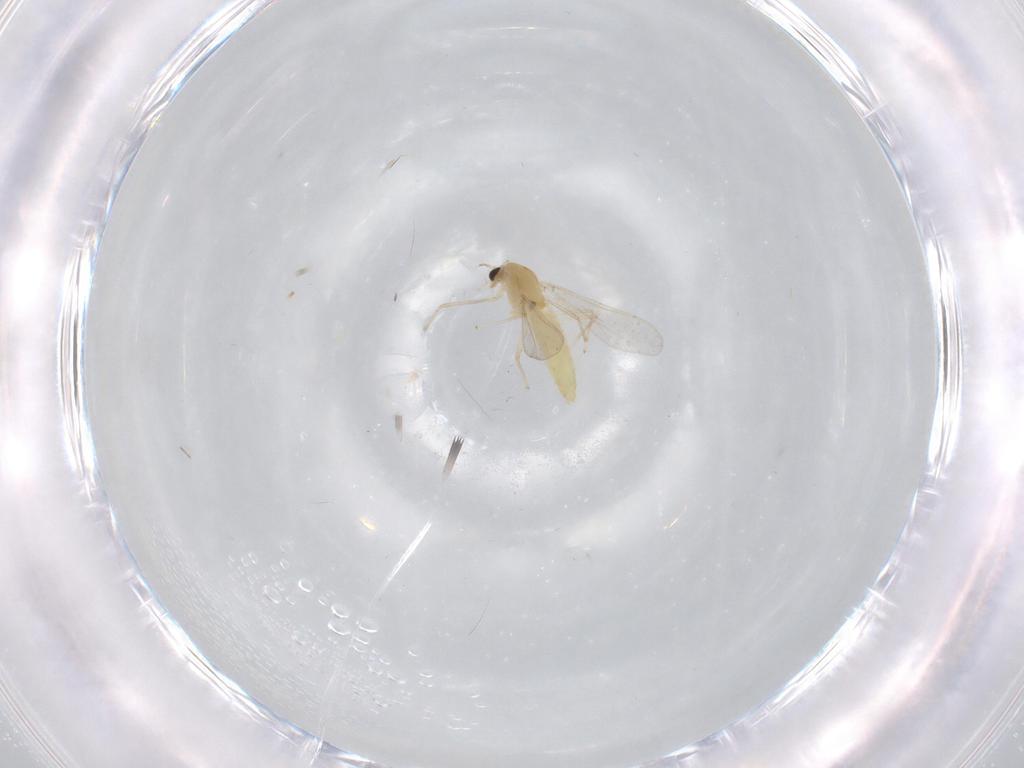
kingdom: Animalia
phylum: Arthropoda
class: Insecta
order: Diptera
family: Chironomidae
